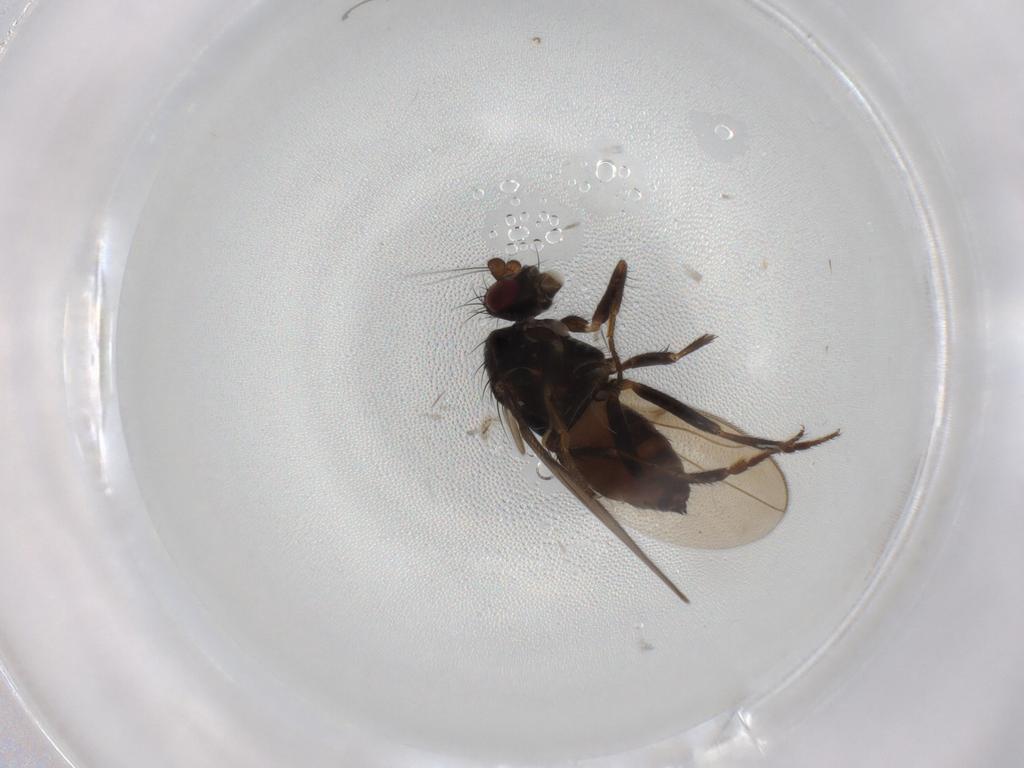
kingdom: Animalia
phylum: Arthropoda
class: Insecta
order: Diptera
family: Sphaeroceridae
